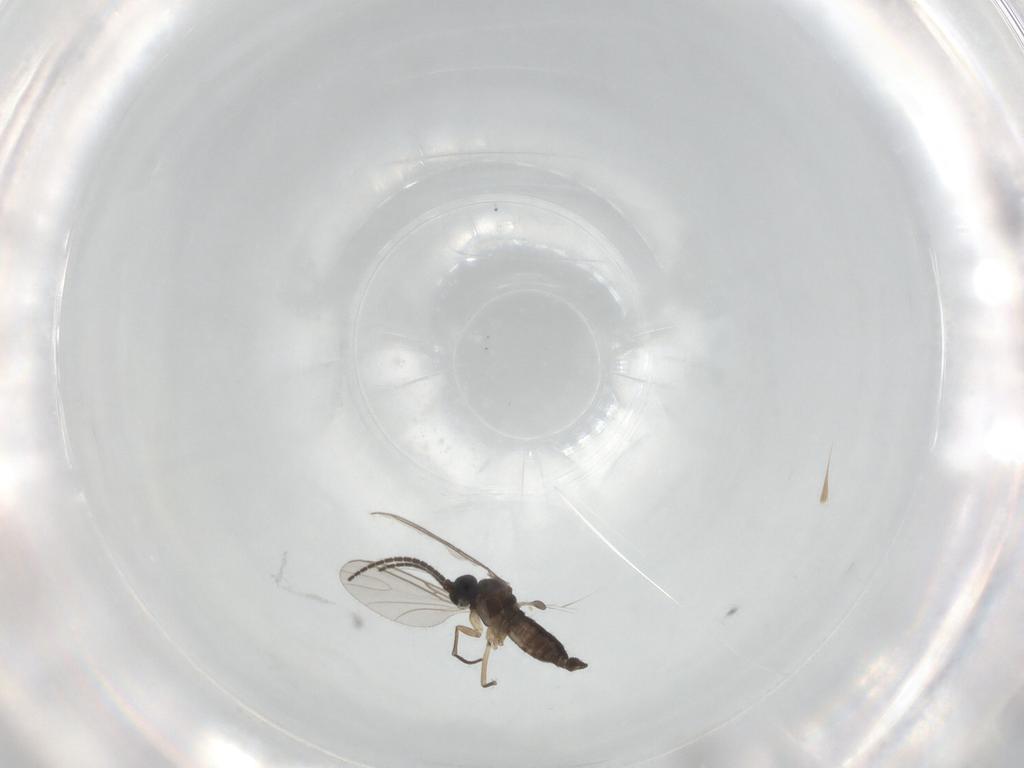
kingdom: Animalia
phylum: Arthropoda
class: Insecta
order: Diptera
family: Sciaridae
